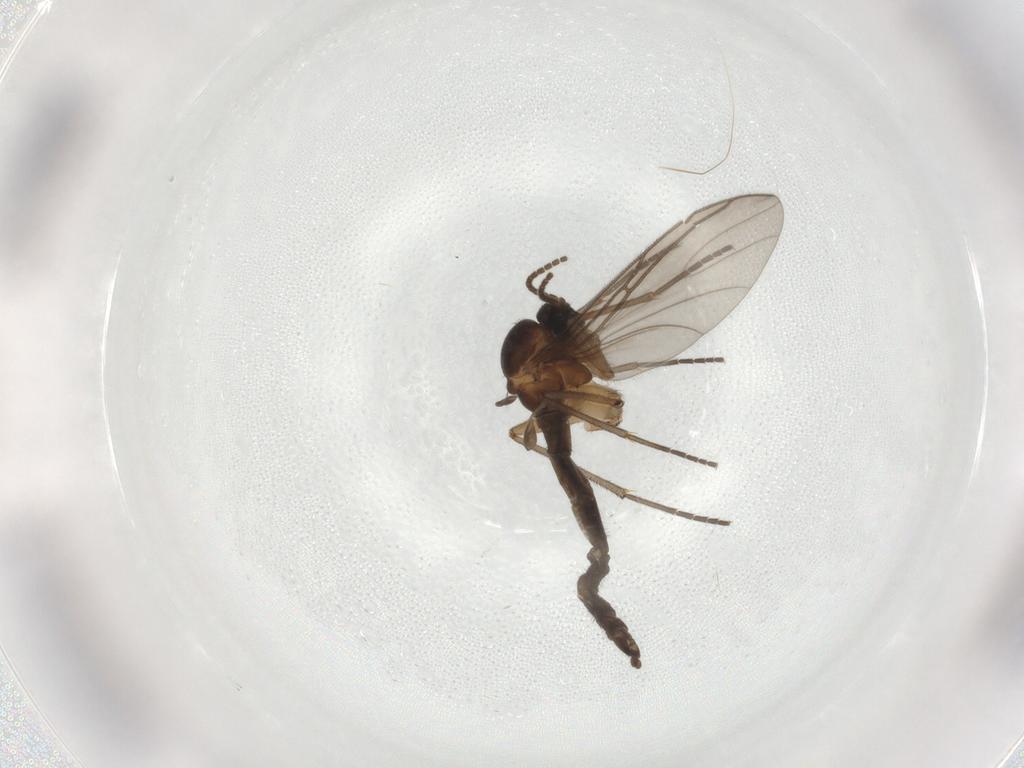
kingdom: Animalia
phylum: Arthropoda
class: Insecta
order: Diptera
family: Sciaridae
